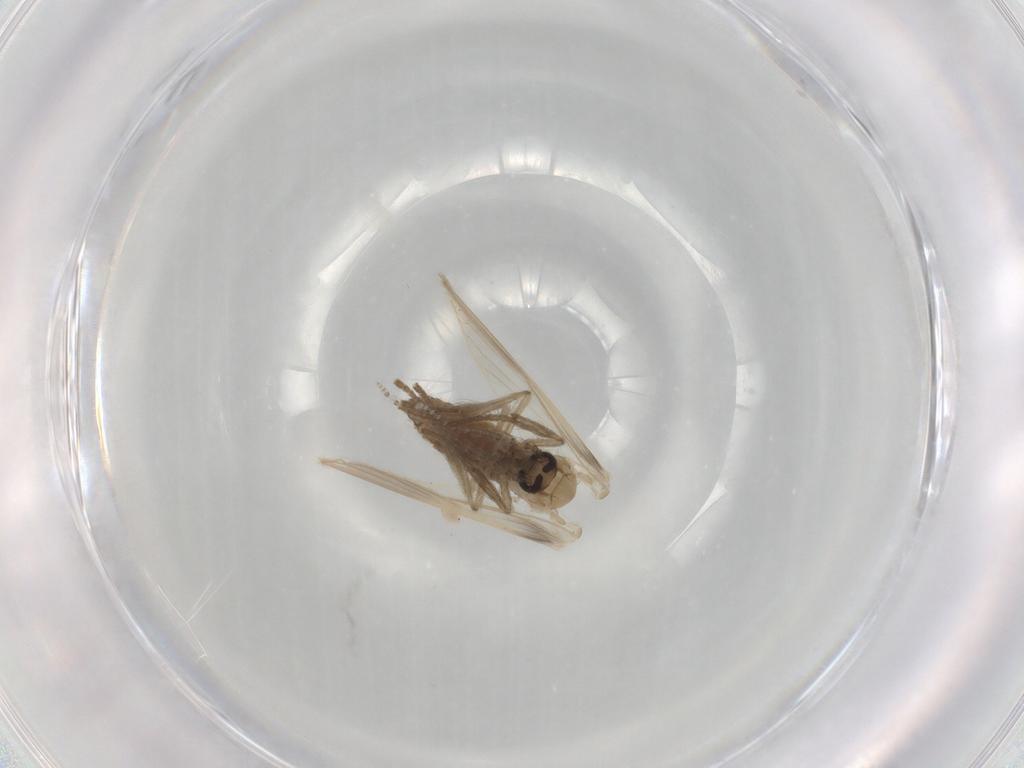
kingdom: Animalia
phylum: Arthropoda
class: Insecta
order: Diptera
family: Psychodidae
